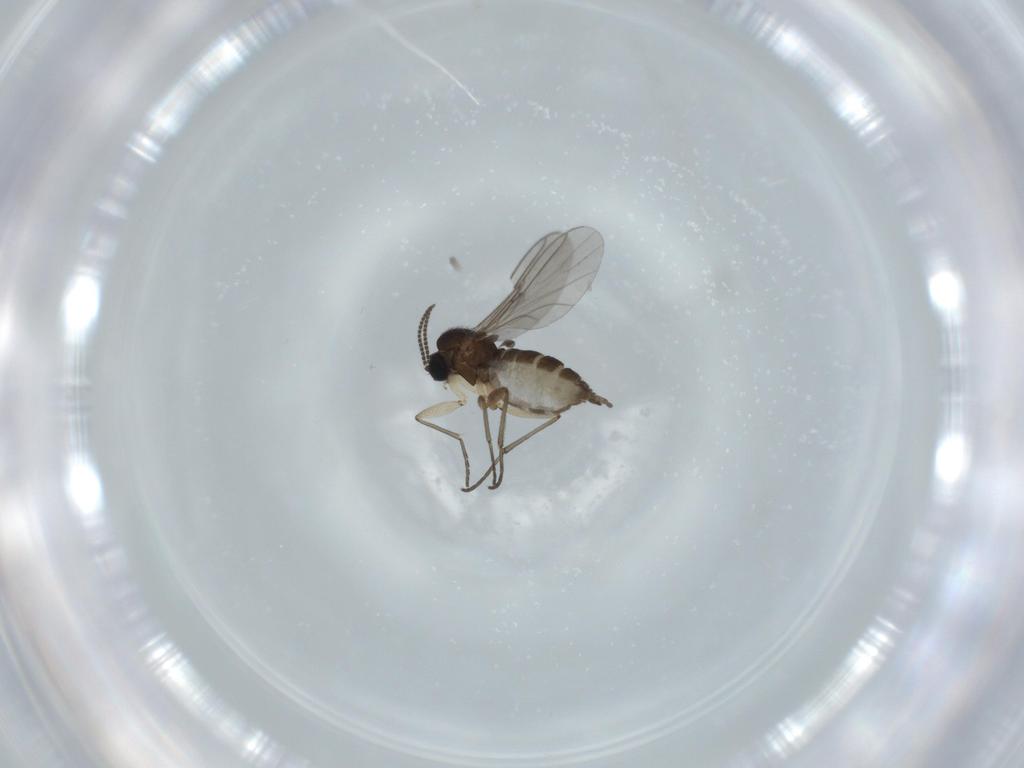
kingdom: Animalia
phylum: Arthropoda
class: Insecta
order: Diptera
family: Sciaridae
